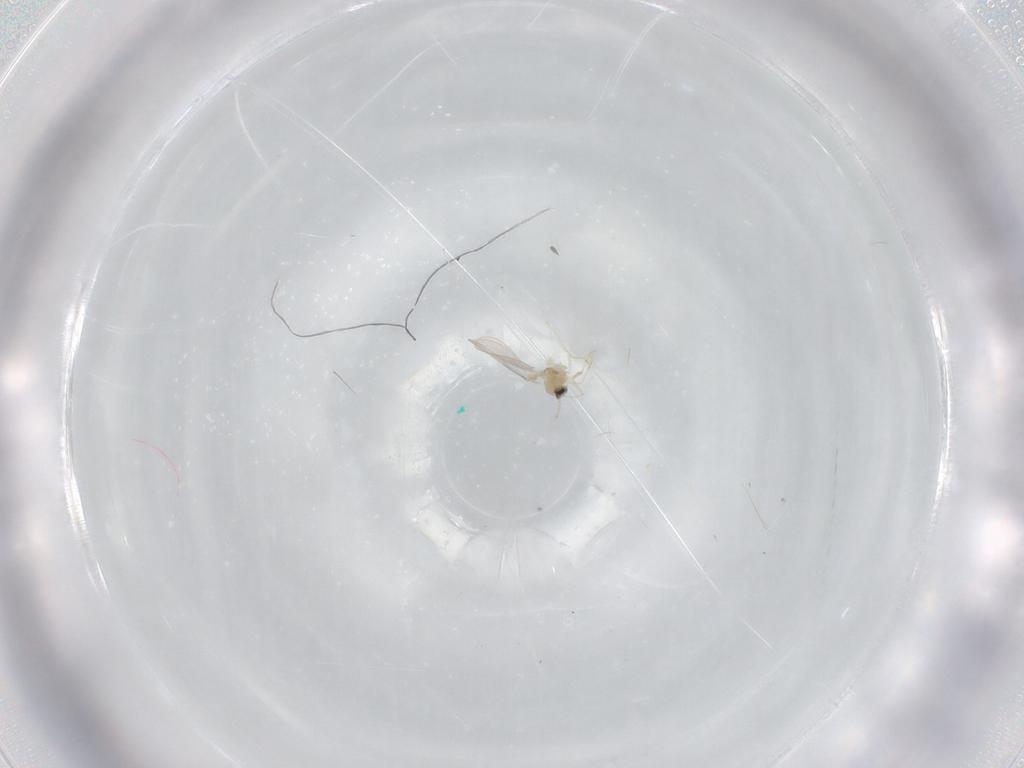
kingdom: Animalia
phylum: Arthropoda
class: Insecta
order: Diptera
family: Cecidomyiidae
